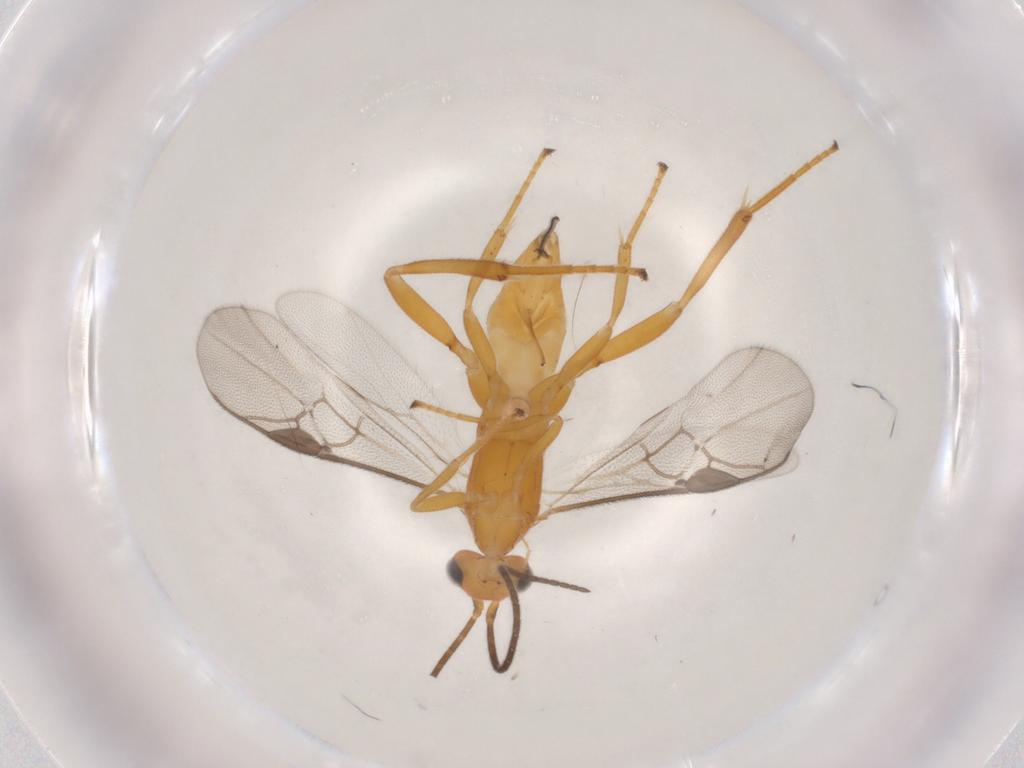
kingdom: Animalia
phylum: Arthropoda
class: Insecta
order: Hymenoptera
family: Braconidae
